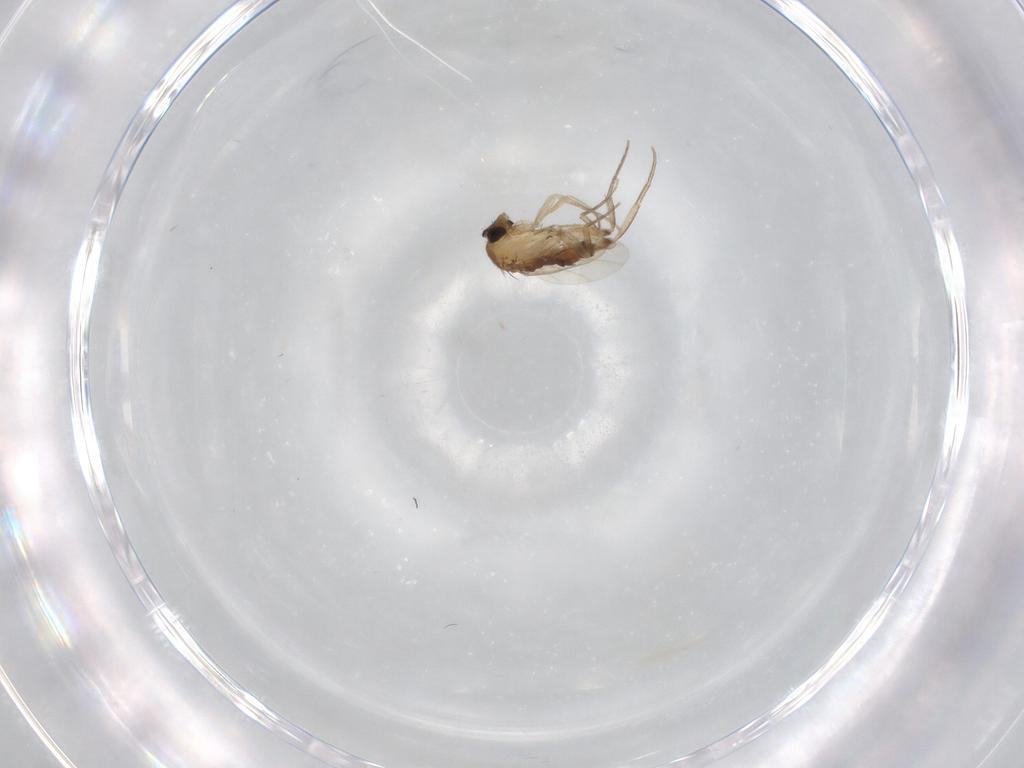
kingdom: Animalia
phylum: Arthropoda
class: Insecta
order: Diptera
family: Phoridae
